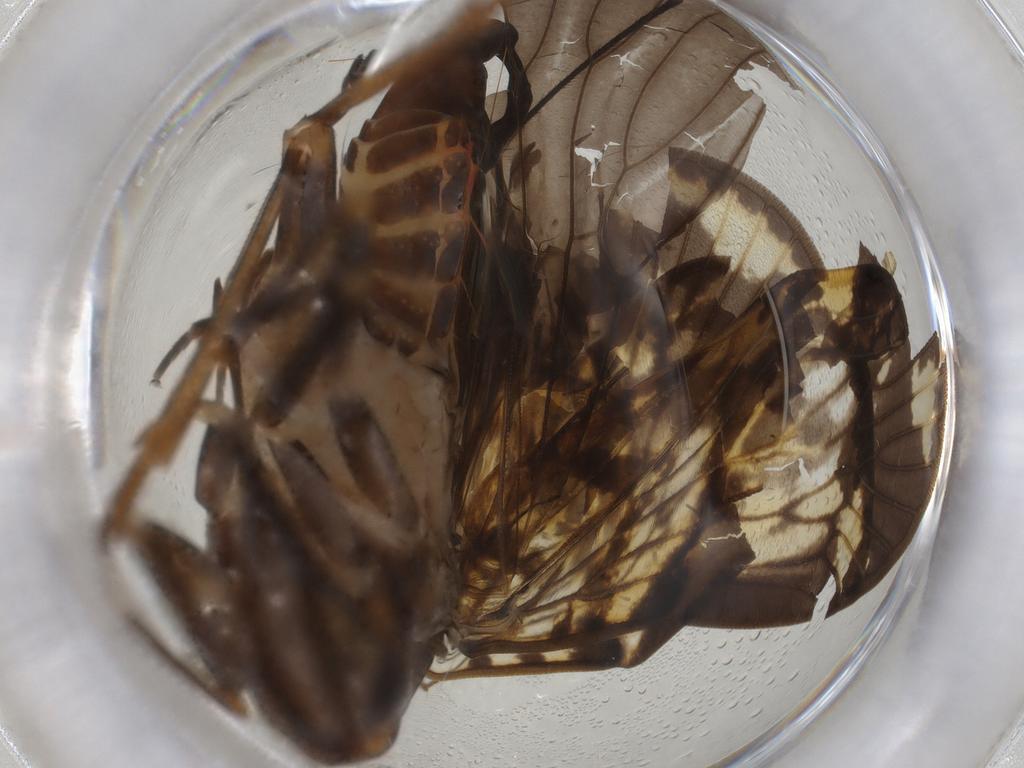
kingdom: Animalia
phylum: Arthropoda
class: Insecta
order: Hemiptera
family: Cixiidae
